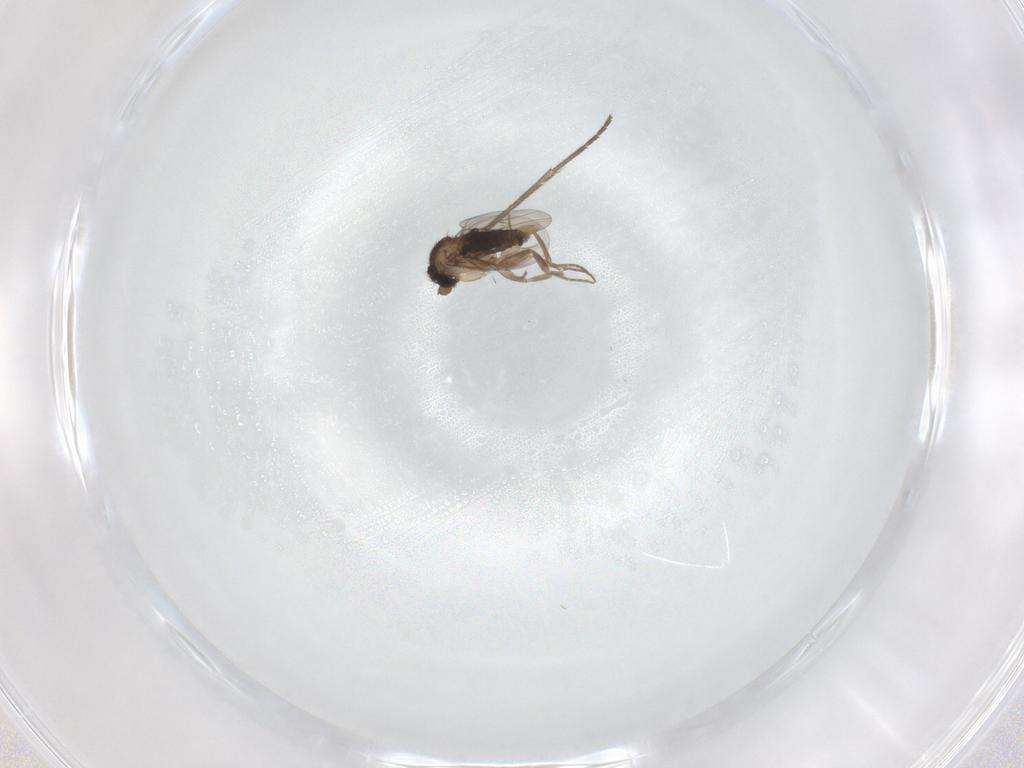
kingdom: Animalia
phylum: Arthropoda
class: Insecta
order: Diptera
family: Sciaridae
